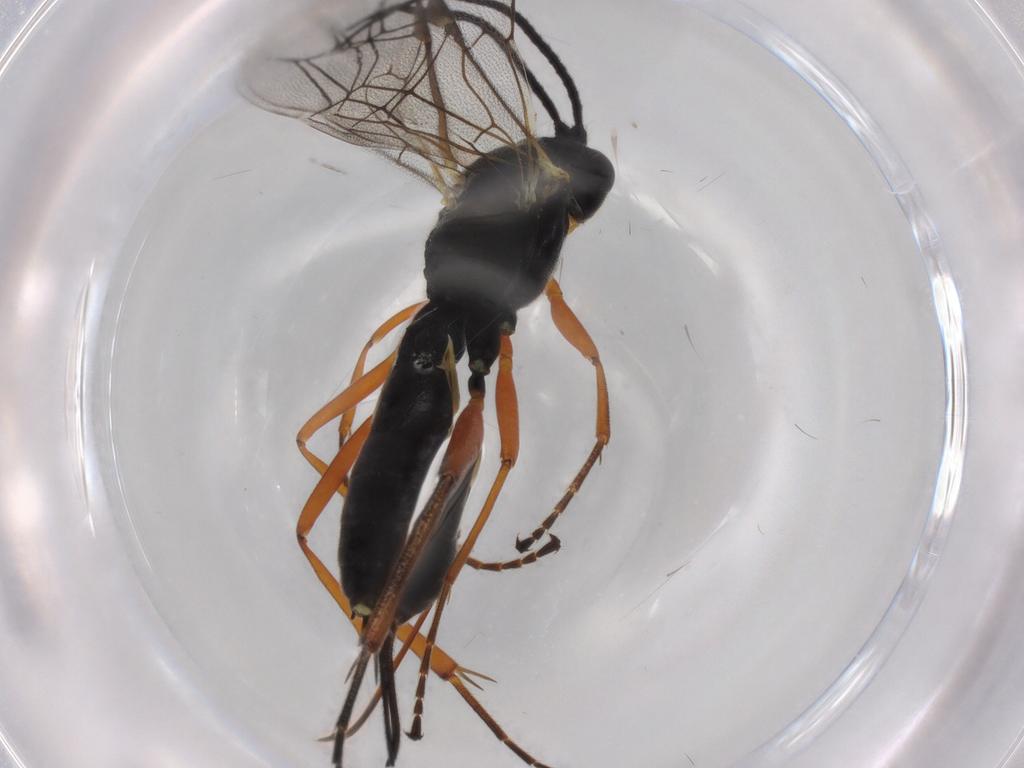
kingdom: Animalia
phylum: Arthropoda
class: Insecta
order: Hymenoptera
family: Ichneumonidae
